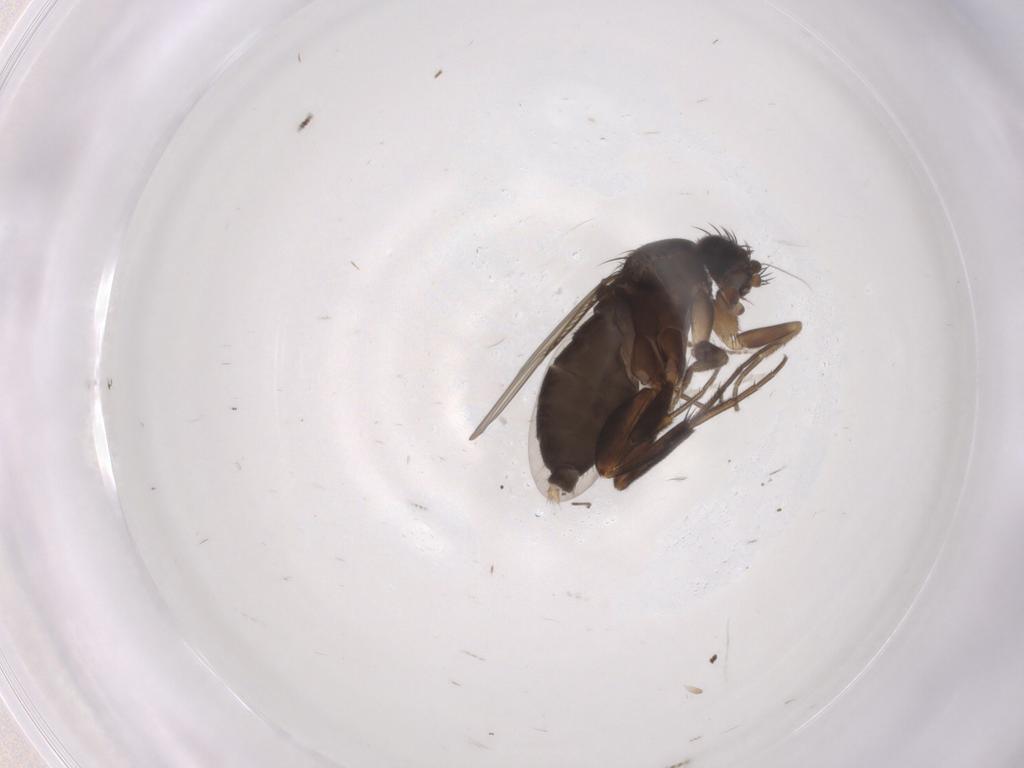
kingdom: Animalia
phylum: Arthropoda
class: Insecta
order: Diptera
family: Phoridae
